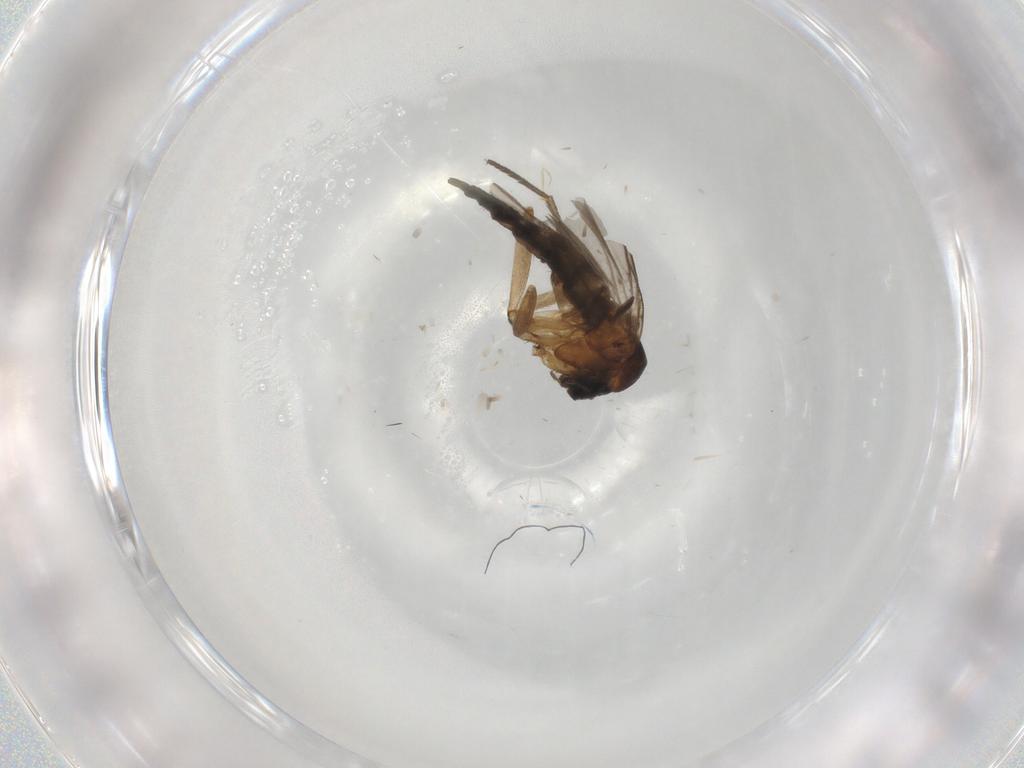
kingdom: Animalia
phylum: Arthropoda
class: Insecta
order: Diptera
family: Sciaridae
